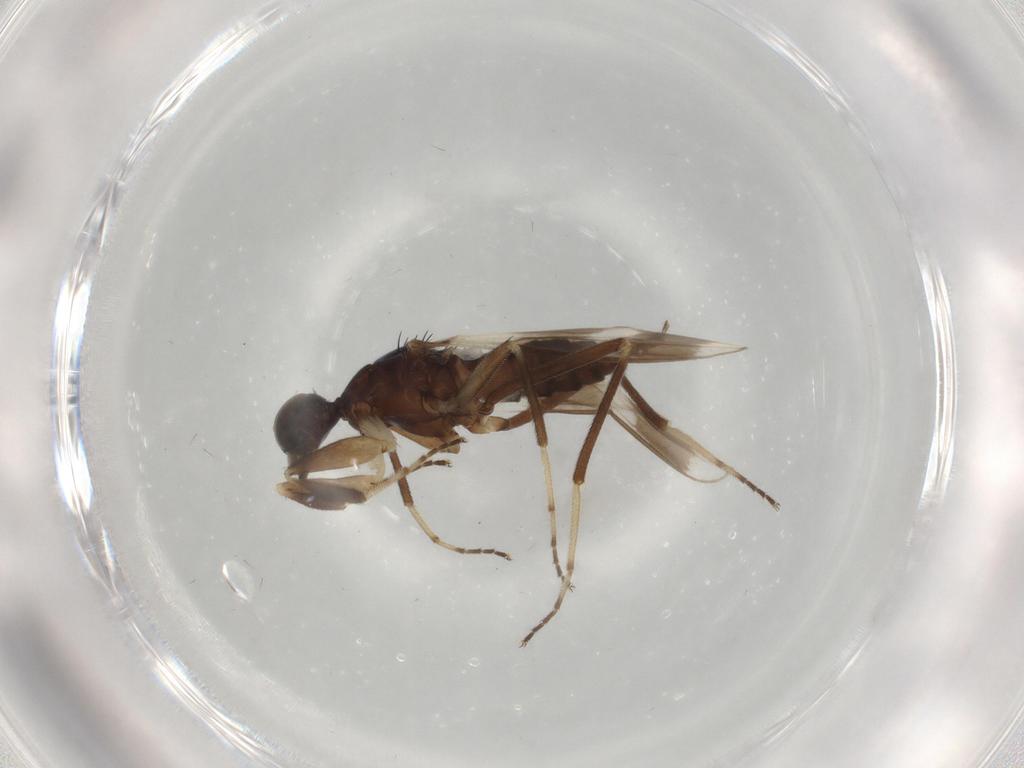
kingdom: Animalia
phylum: Arthropoda
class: Insecta
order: Diptera
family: Hybotidae
